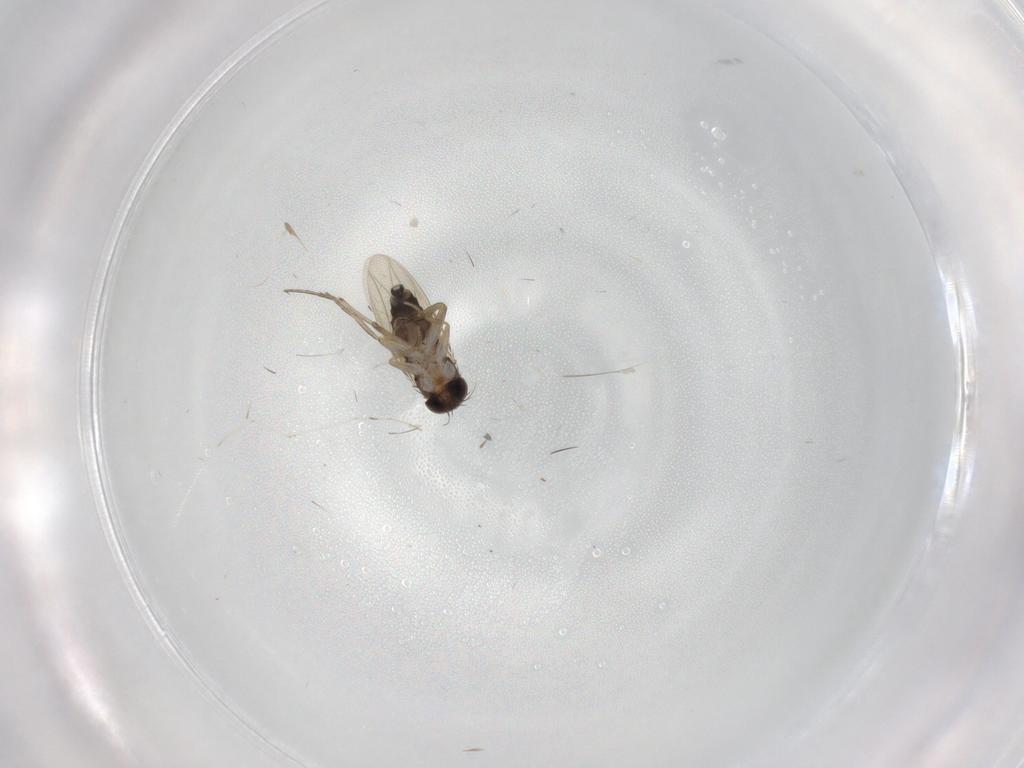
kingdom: Animalia
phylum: Arthropoda
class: Insecta
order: Diptera
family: Phoridae
